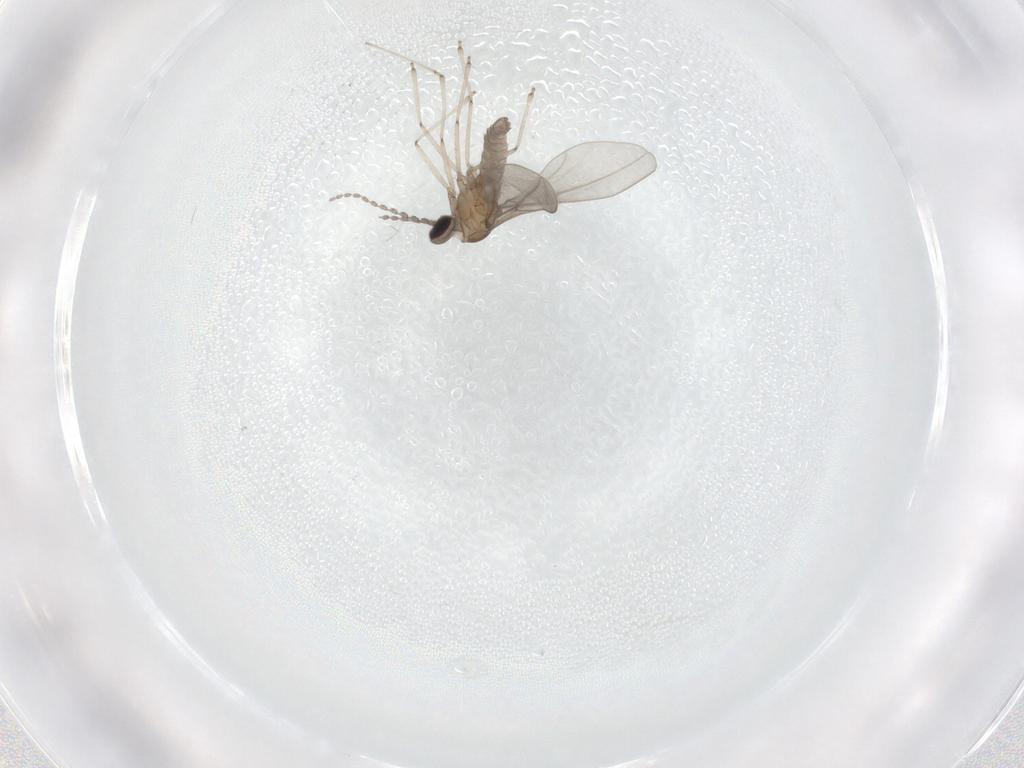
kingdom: Animalia
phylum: Arthropoda
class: Insecta
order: Diptera
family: Cecidomyiidae
